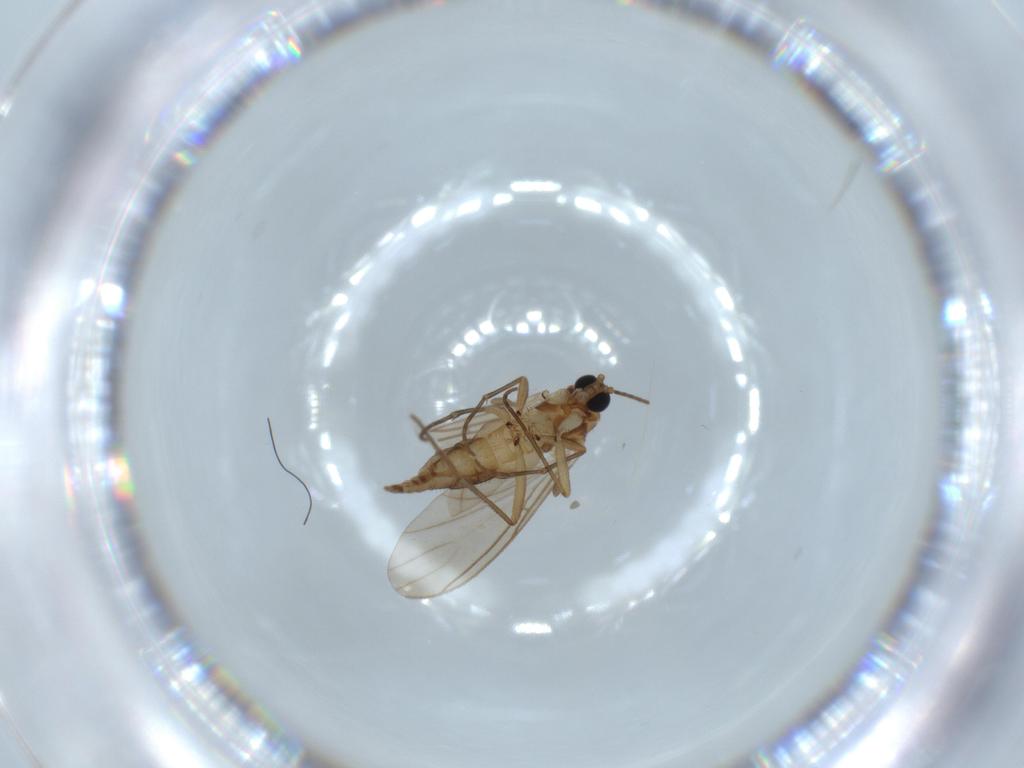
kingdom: Animalia
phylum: Arthropoda
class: Insecta
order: Diptera
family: Sciaridae
